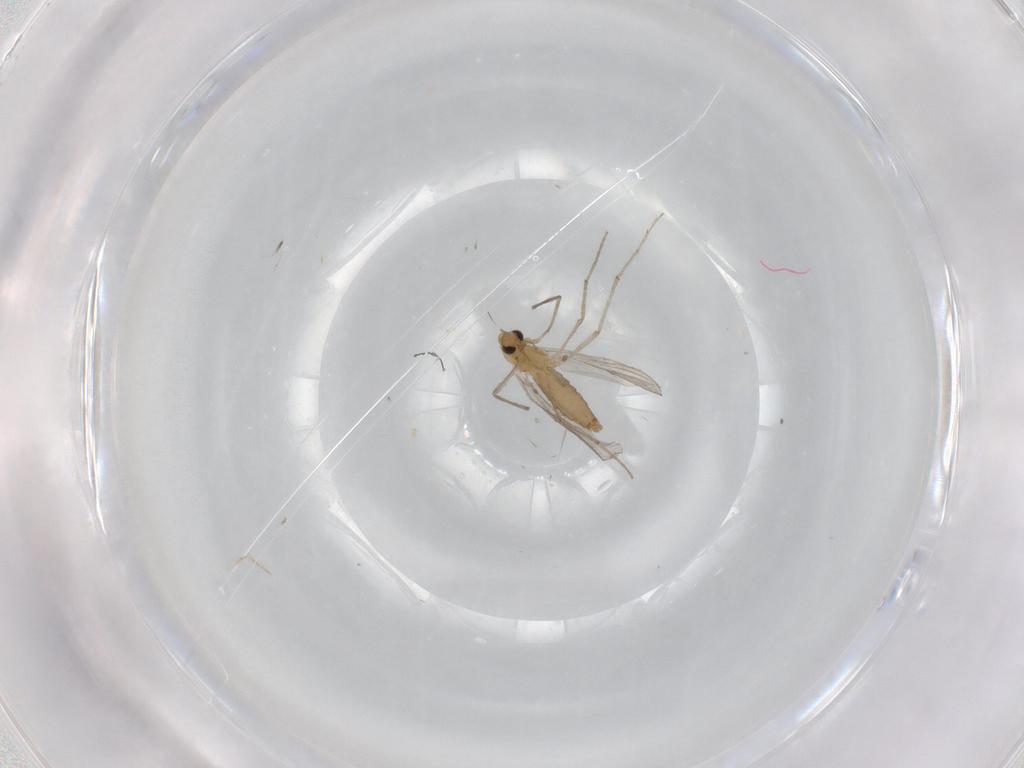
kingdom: Animalia
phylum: Arthropoda
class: Insecta
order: Diptera
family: Chironomidae
